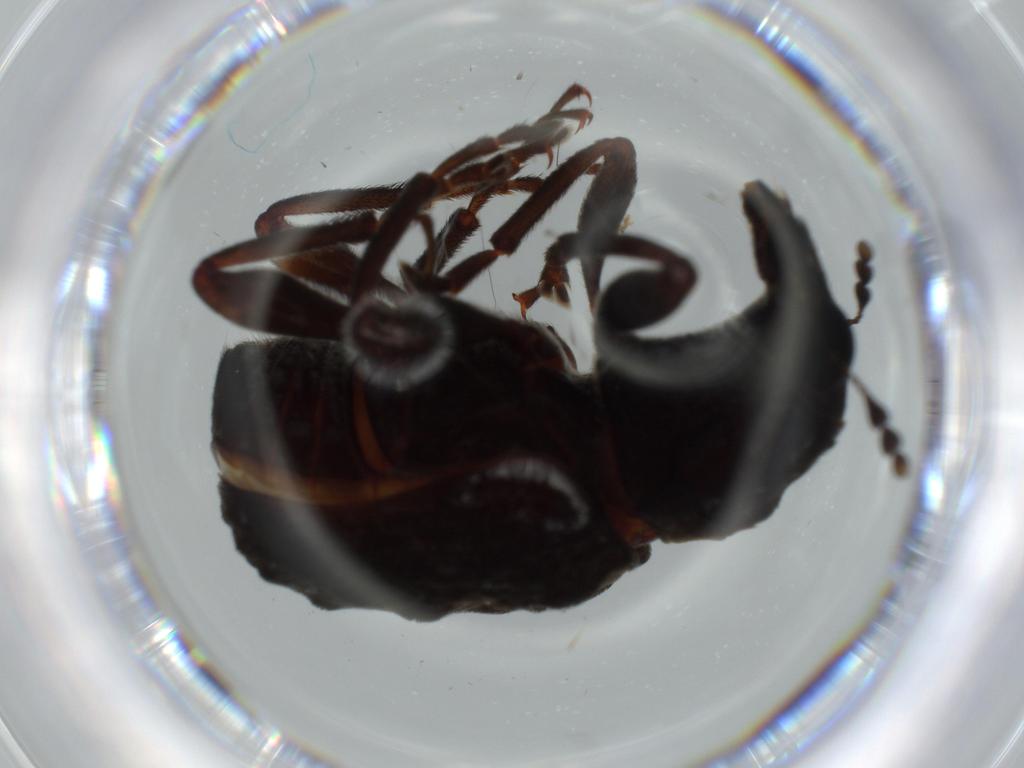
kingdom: Animalia
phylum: Arthropoda
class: Insecta
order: Coleoptera
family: Anthribidae
